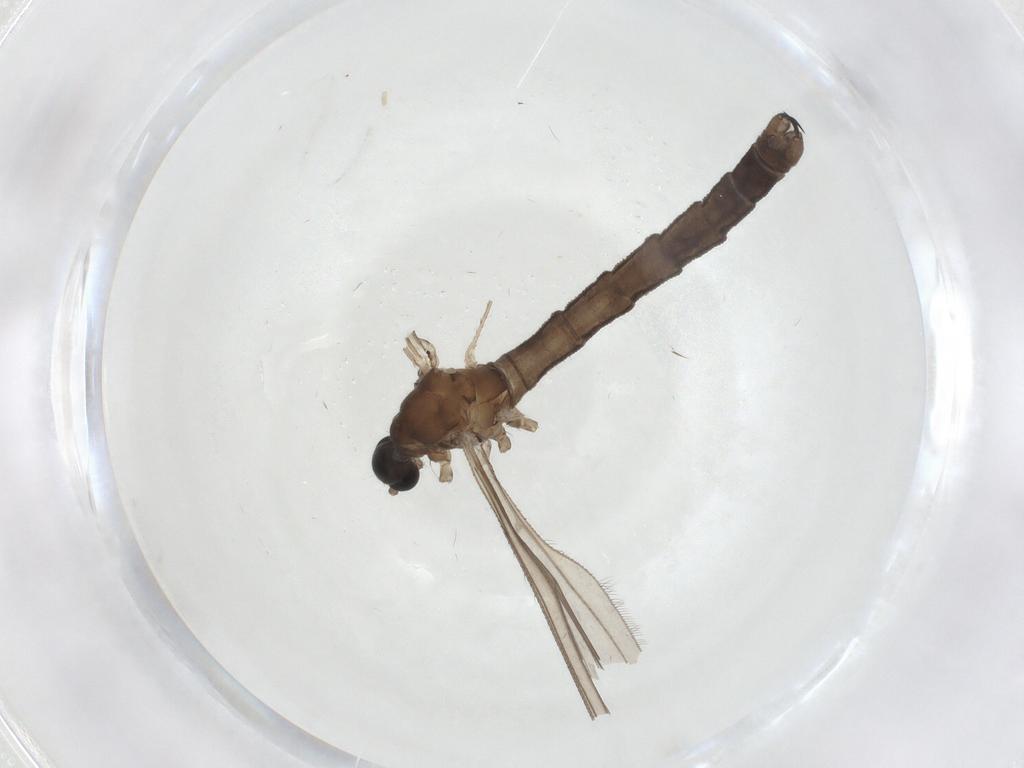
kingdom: Animalia
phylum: Arthropoda
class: Insecta
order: Diptera
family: Limoniidae
